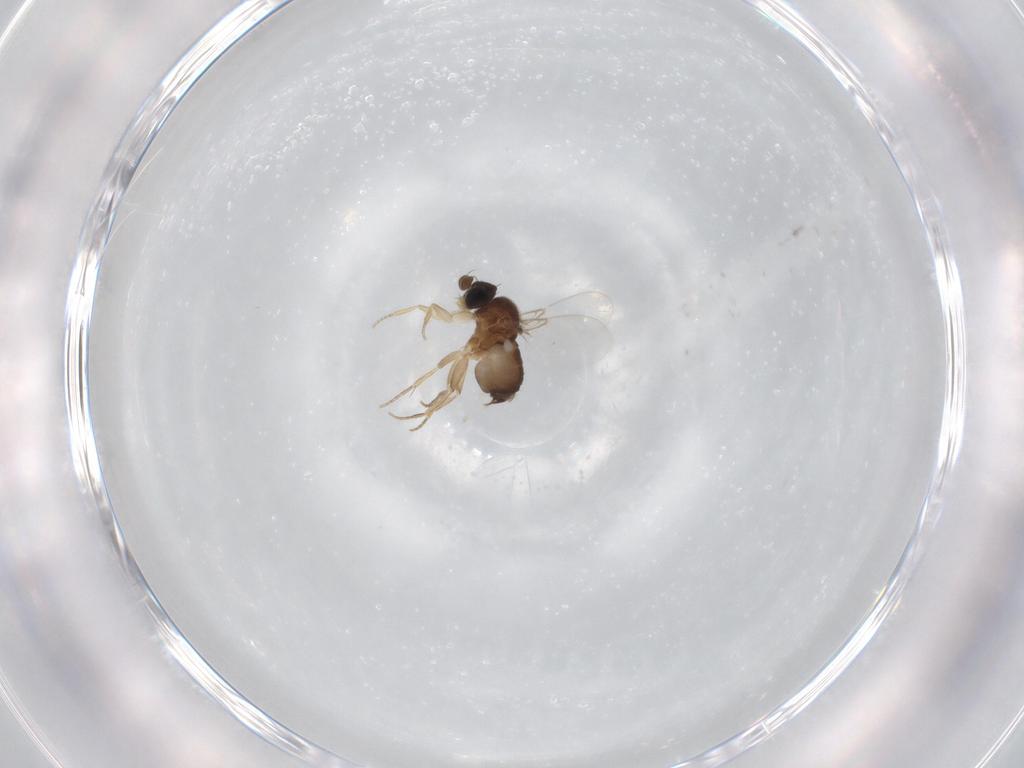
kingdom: Animalia
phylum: Arthropoda
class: Insecta
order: Diptera
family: Phoridae
